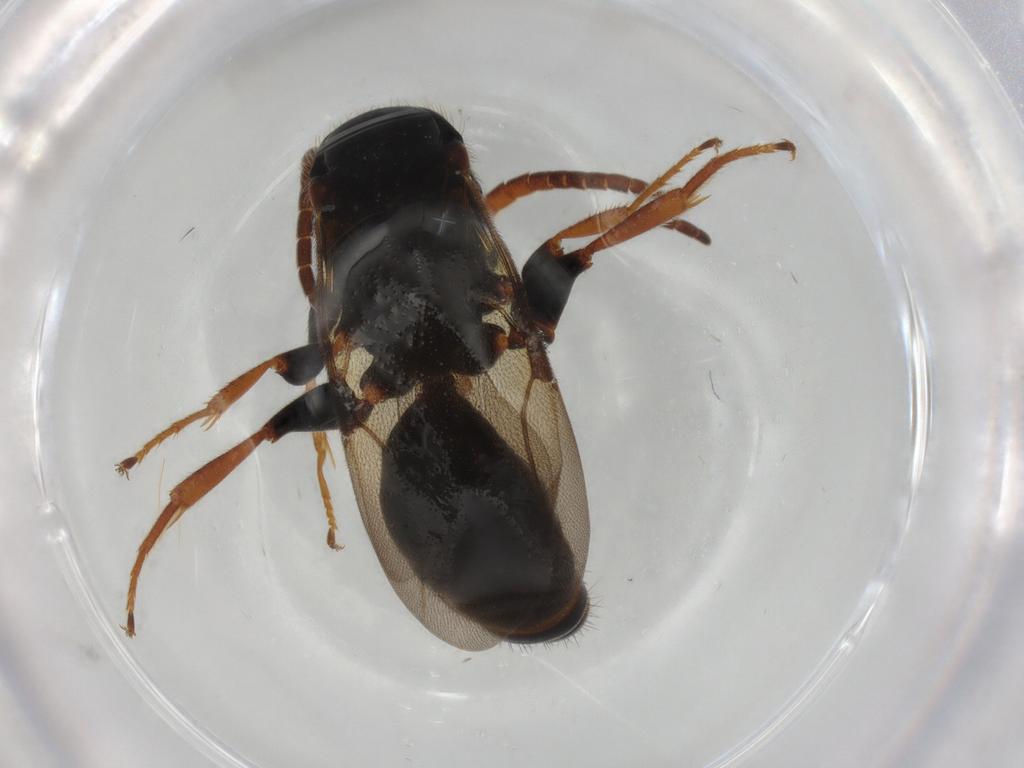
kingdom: Animalia
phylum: Arthropoda
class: Insecta
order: Hymenoptera
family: Bethylidae
